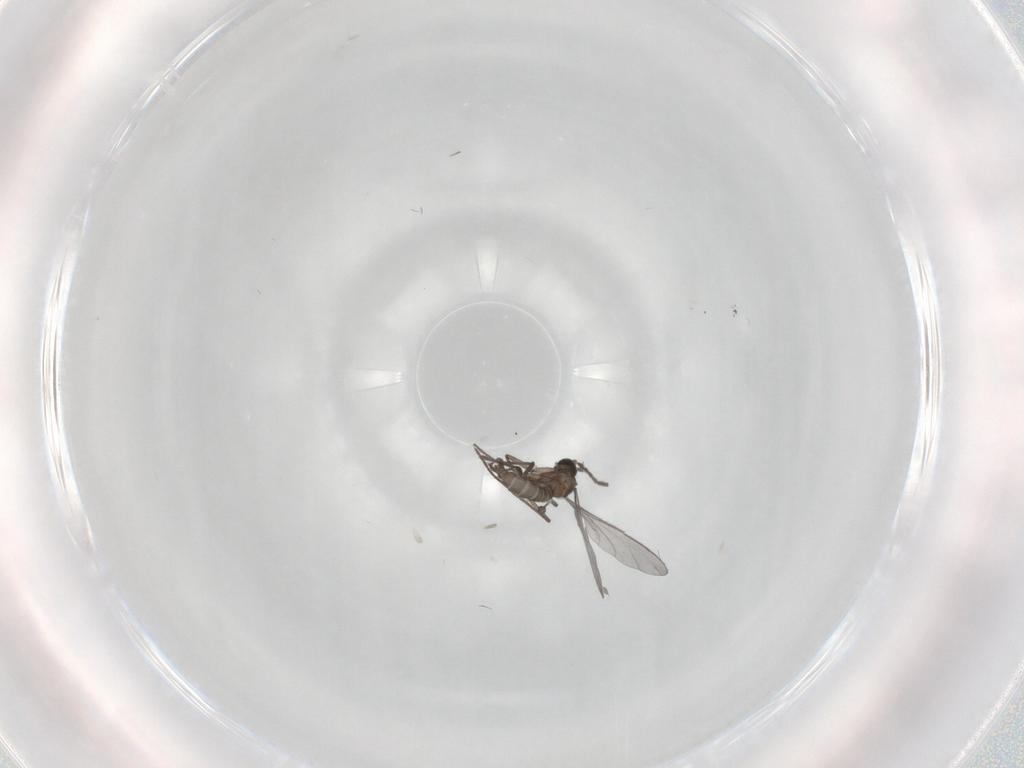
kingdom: Animalia
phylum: Arthropoda
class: Insecta
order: Diptera
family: Sciaridae
